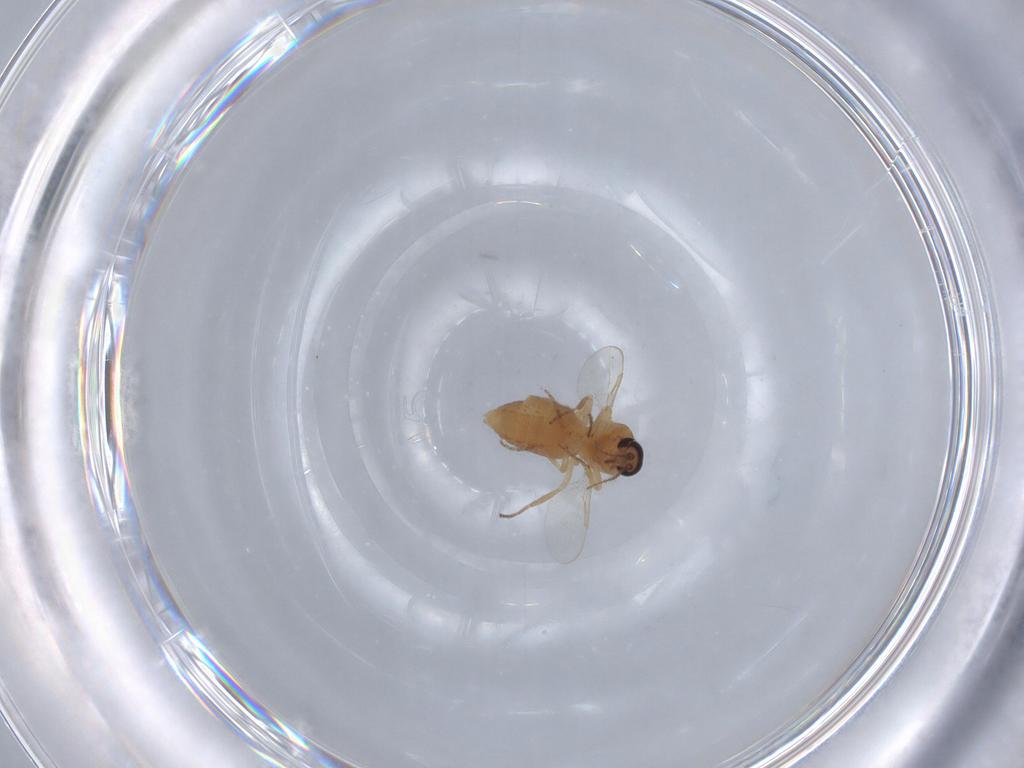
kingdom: Animalia
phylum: Arthropoda
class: Insecta
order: Diptera
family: Ceratopogonidae
